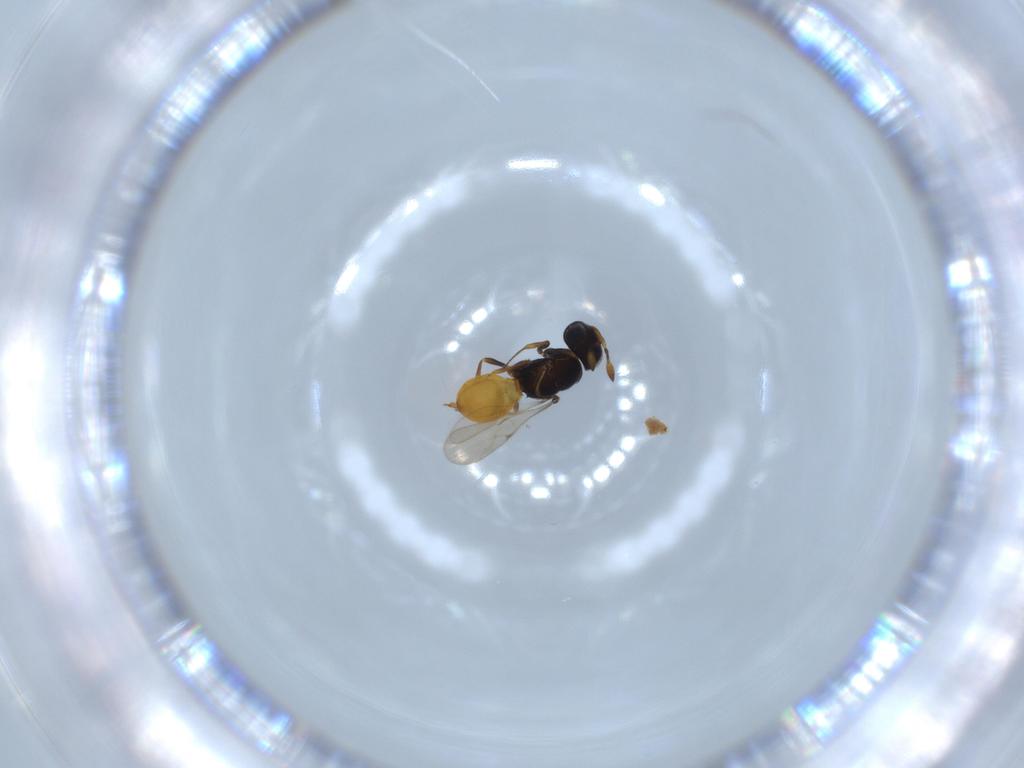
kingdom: Animalia
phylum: Arthropoda
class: Insecta
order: Hymenoptera
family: Scelionidae
